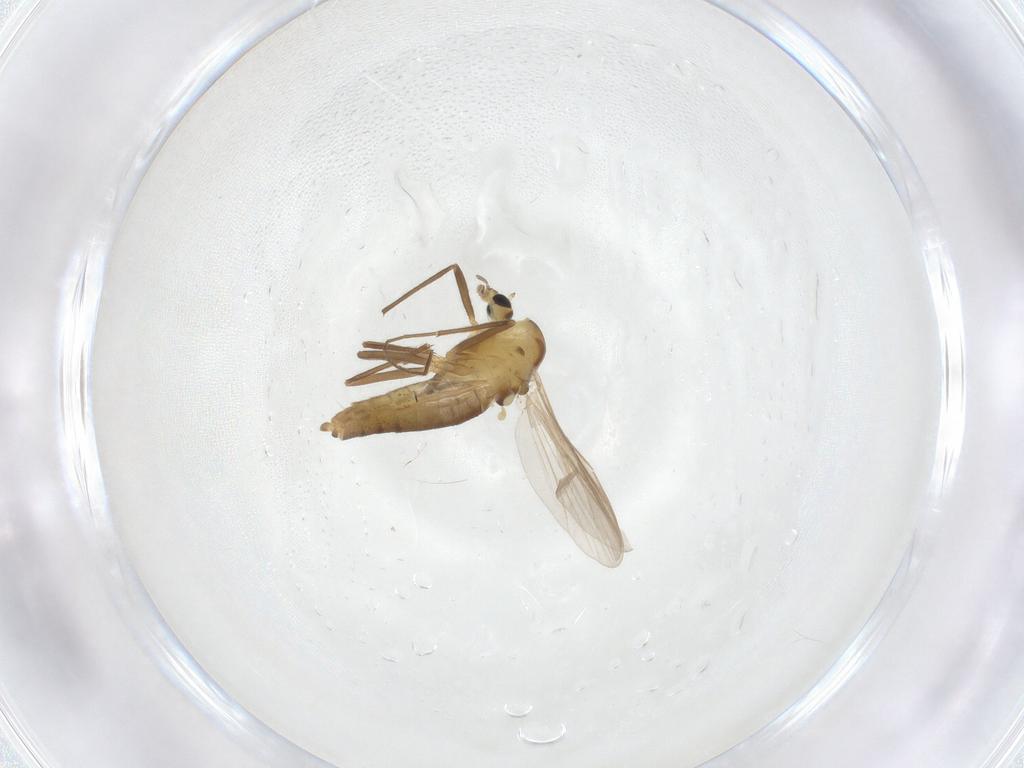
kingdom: Animalia
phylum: Arthropoda
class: Insecta
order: Diptera
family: Chironomidae
